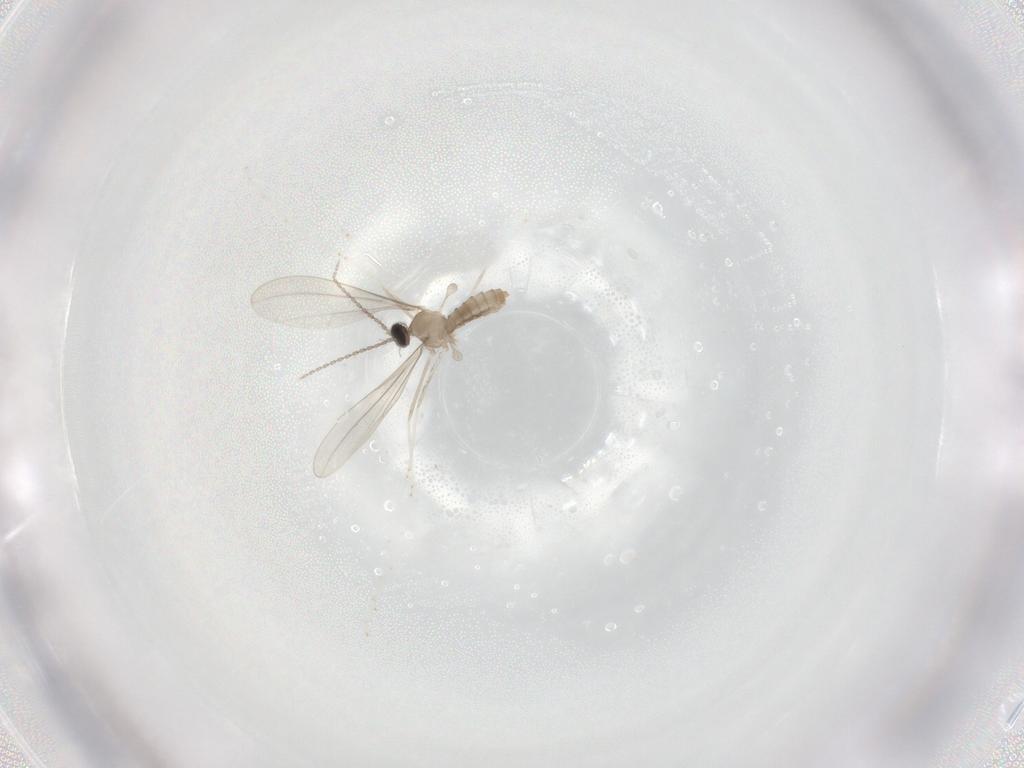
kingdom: Animalia
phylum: Arthropoda
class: Insecta
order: Diptera
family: Cecidomyiidae
